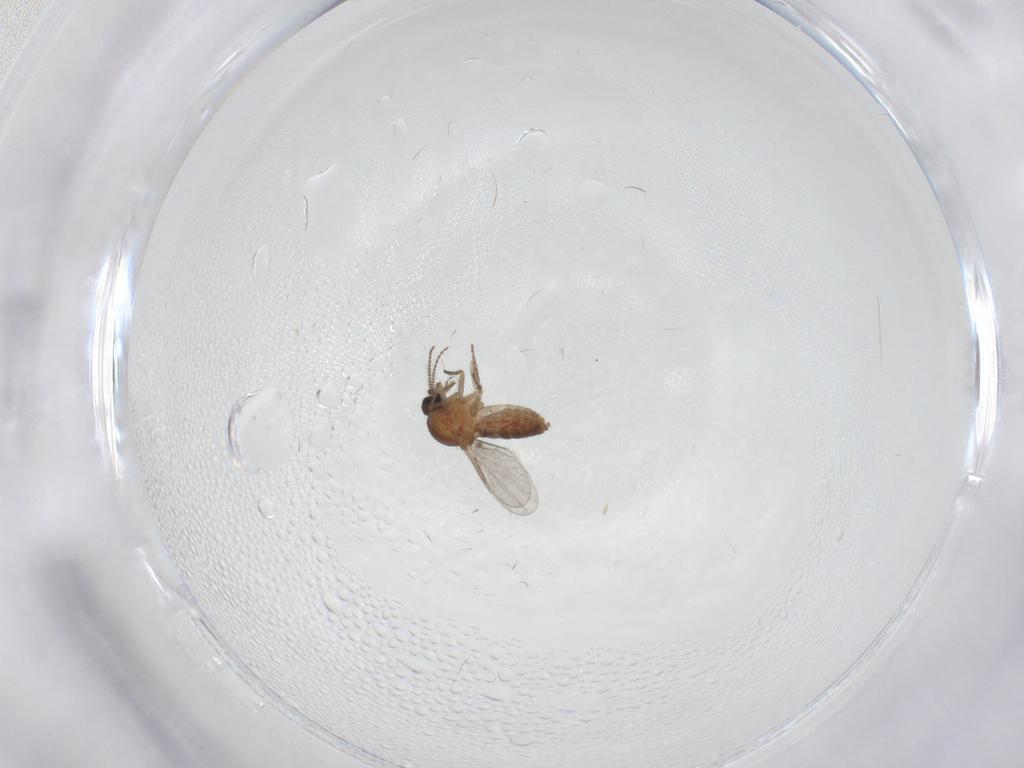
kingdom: Animalia
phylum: Arthropoda
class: Insecta
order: Diptera
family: Ceratopogonidae
